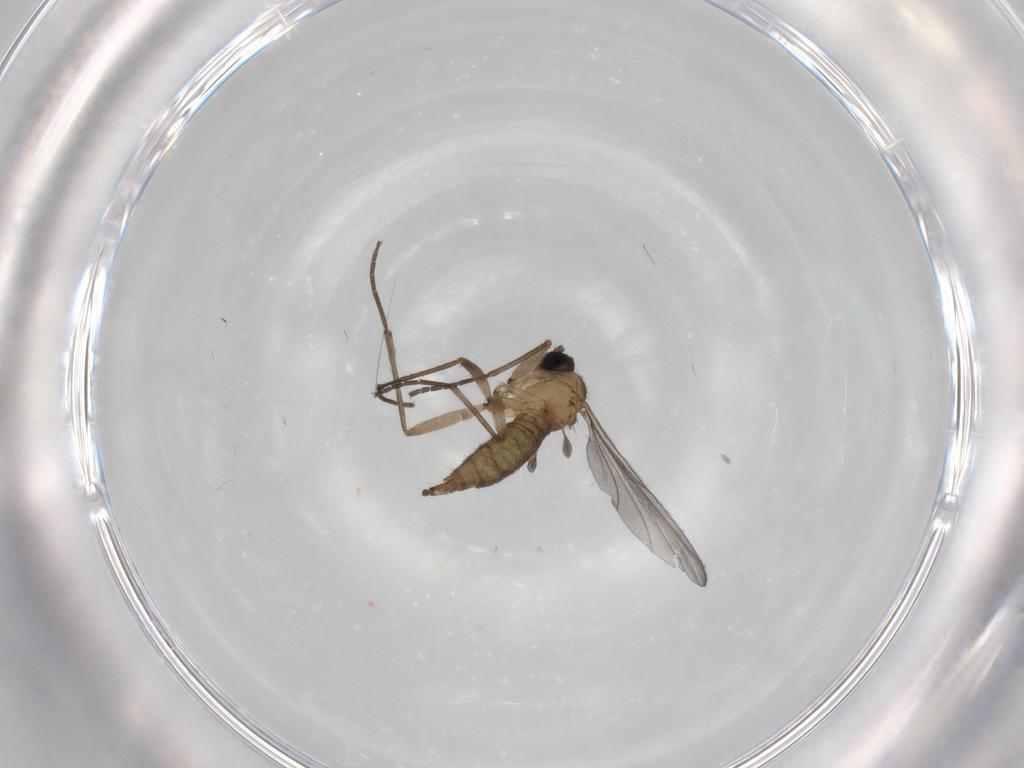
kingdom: Animalia
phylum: Arthropoda
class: Insecta
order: Diptera
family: Sciaridae
